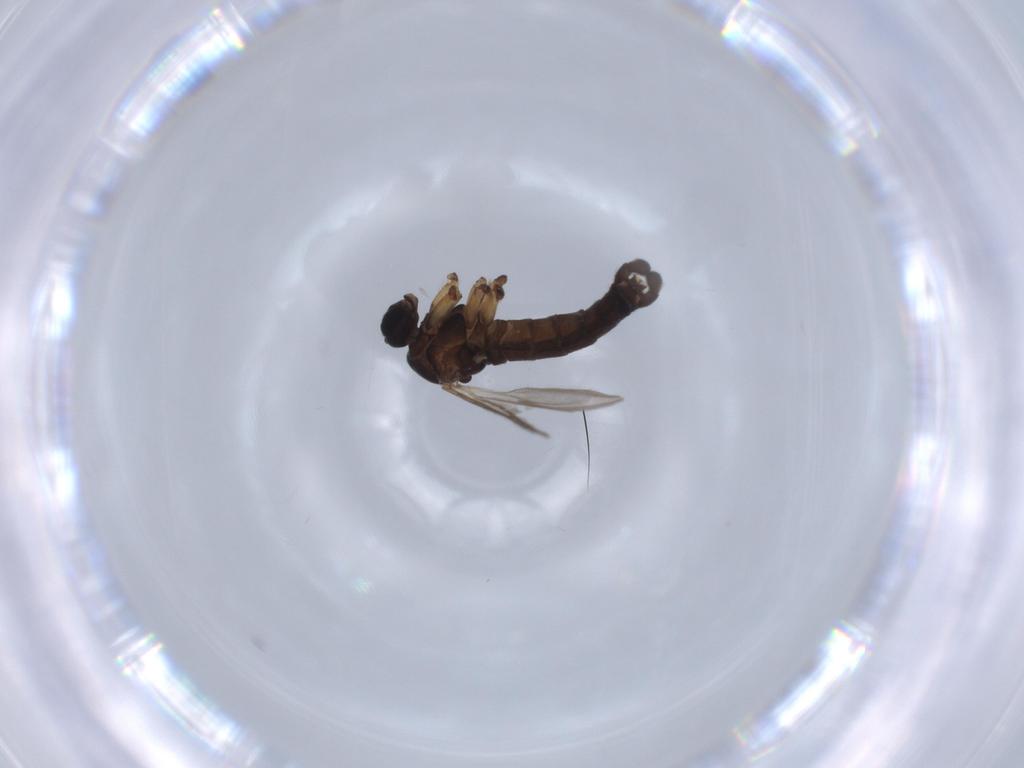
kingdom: Animalia
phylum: Arthropoda
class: Insecta
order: Diptera
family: Sciaridae
